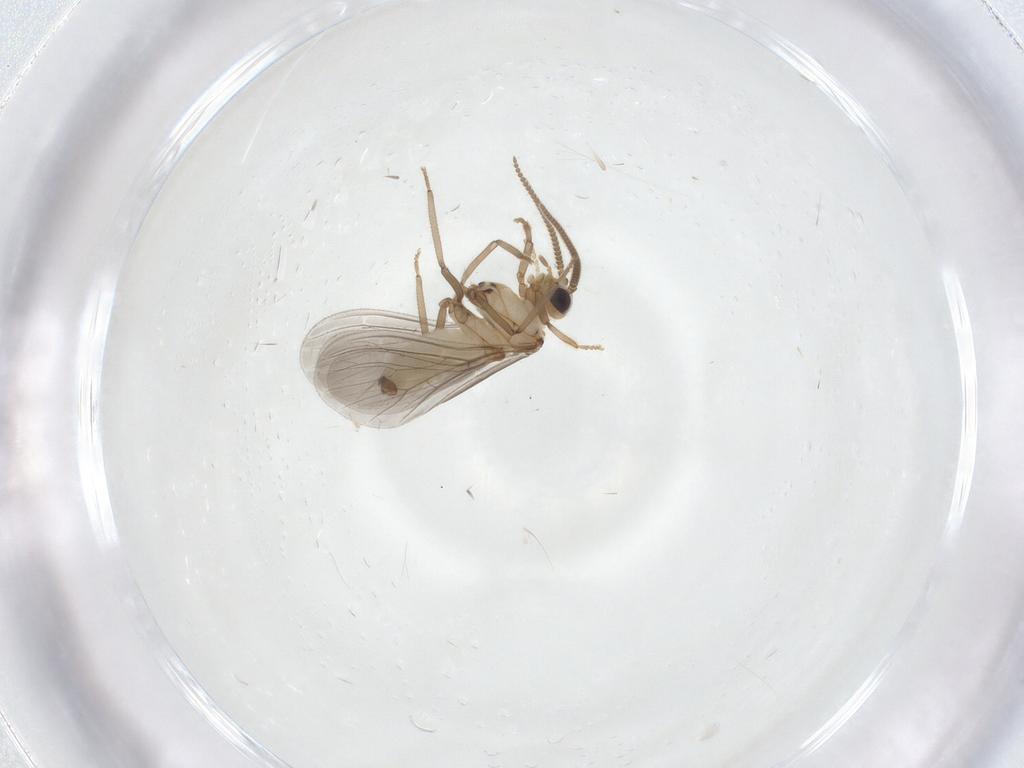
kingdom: Animalia
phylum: Arthropoda
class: Insecta
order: Neuroptera
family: Coniopterygidae
